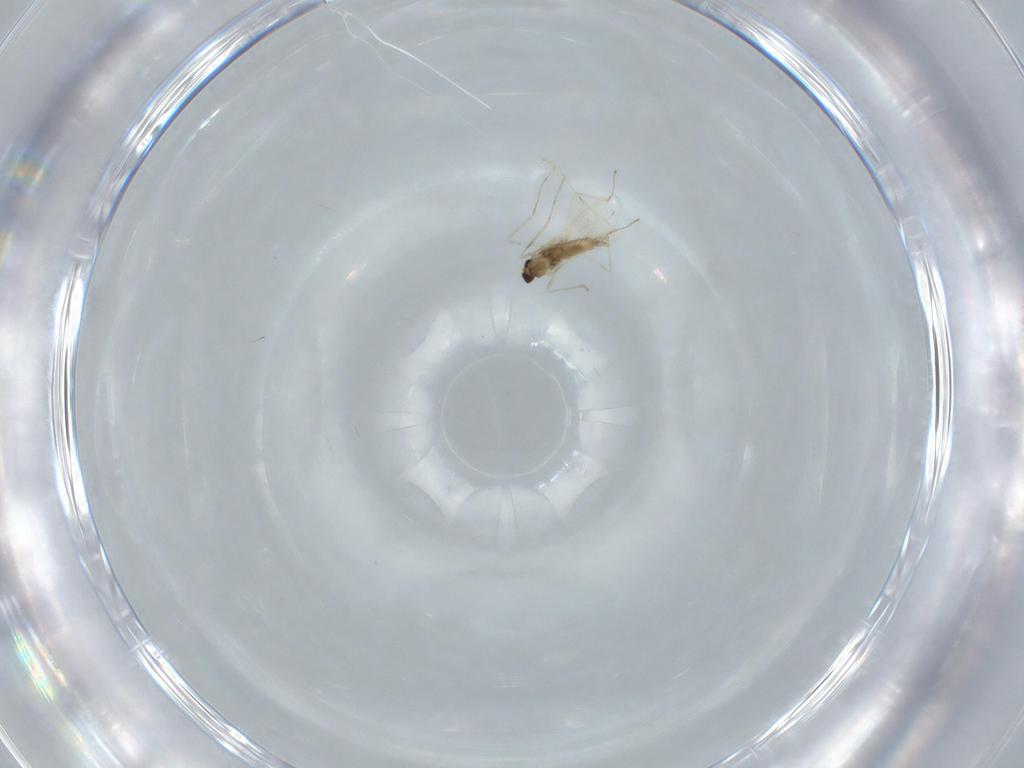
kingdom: Animalia
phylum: Arthropoda
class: Insecta
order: Diptera
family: Cecidomyiidae
